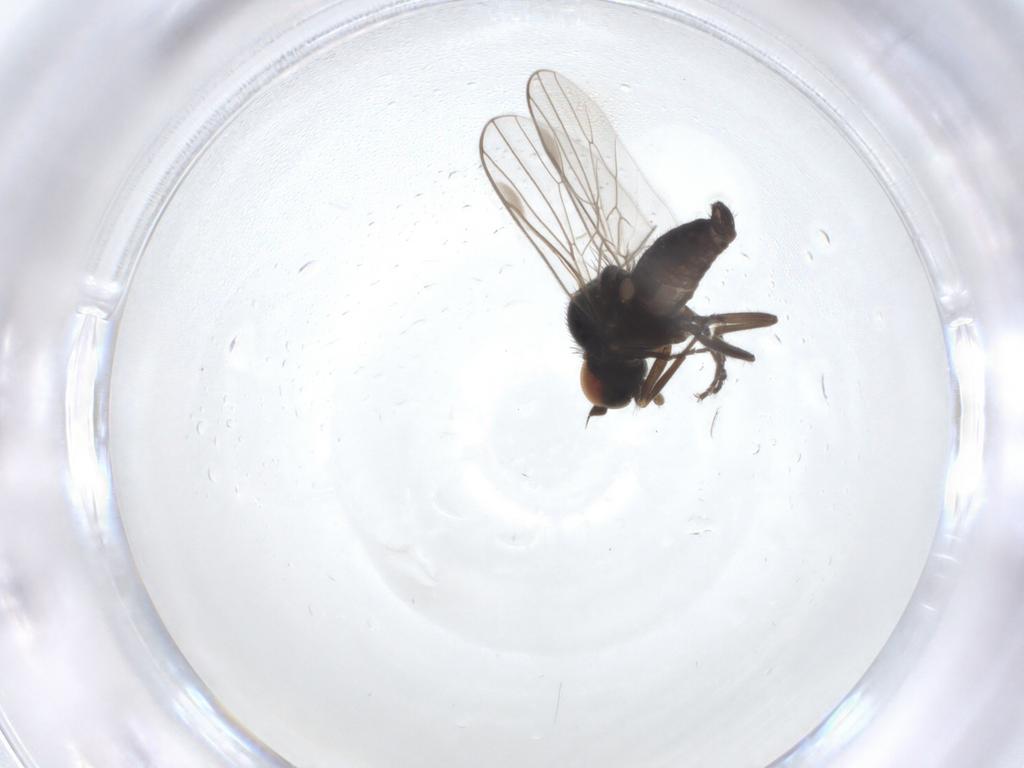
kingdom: Animalia
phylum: Arthropoda
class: Insecta
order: Diptera
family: Hybotidae
